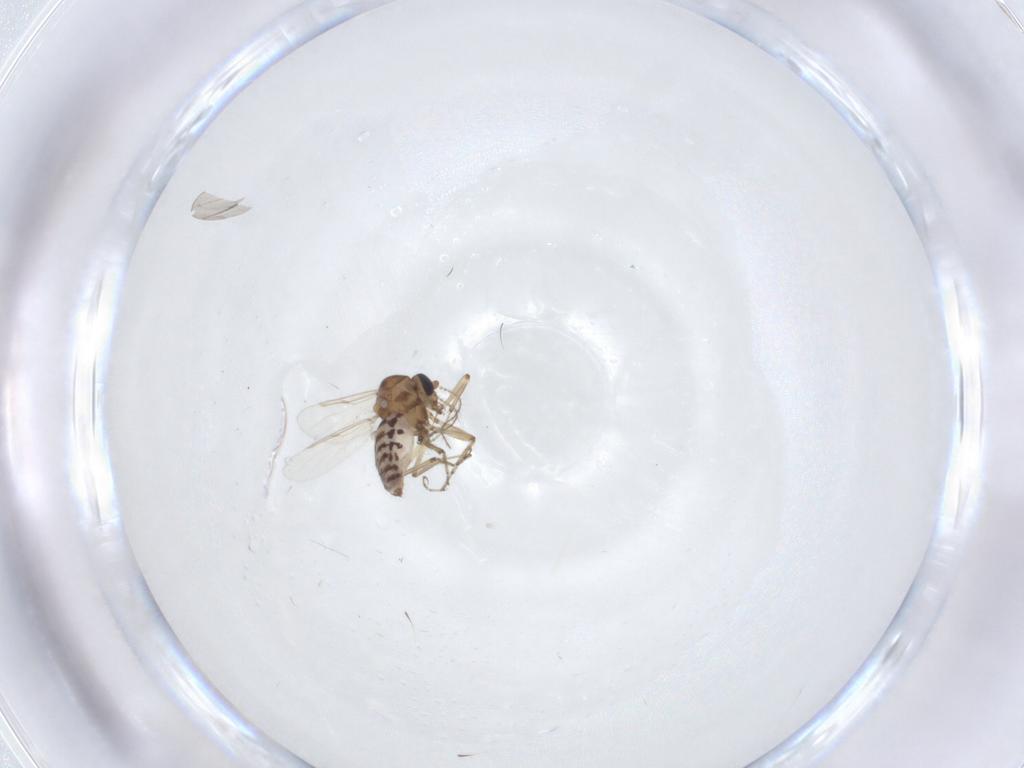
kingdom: Animalia
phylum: Arthropoda
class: Insecta
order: Diptera
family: Ceratopogonidae
